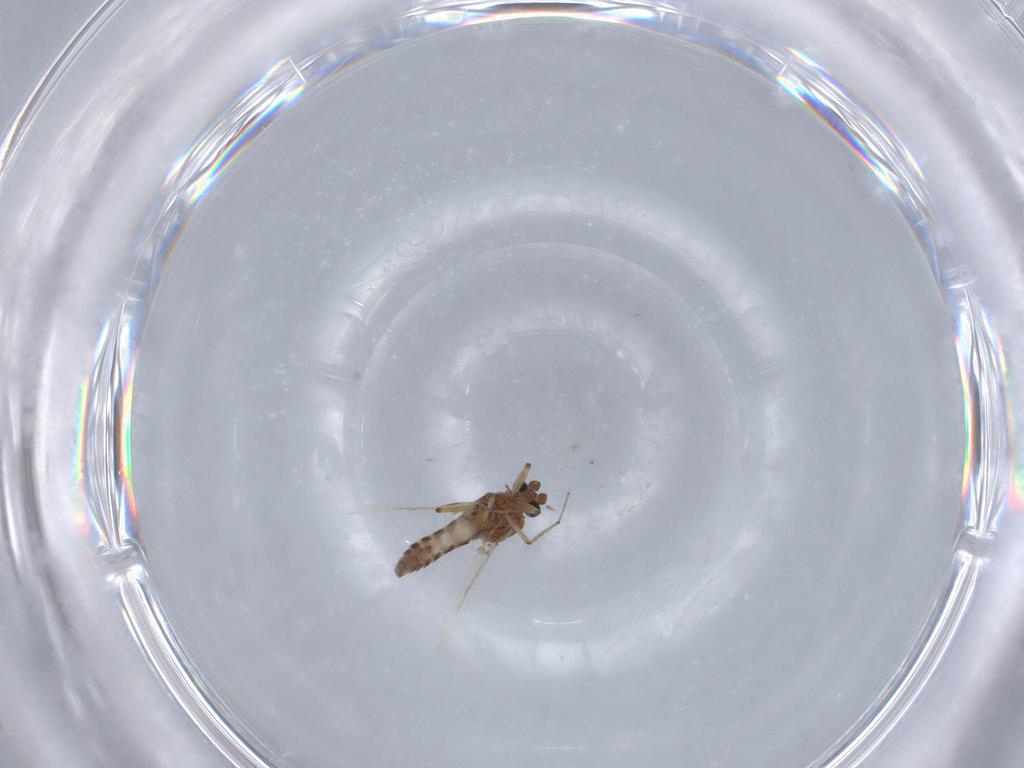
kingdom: Animalia
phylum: Arthropoda
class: Insecta
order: Diptera
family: Ceratopogonidae
